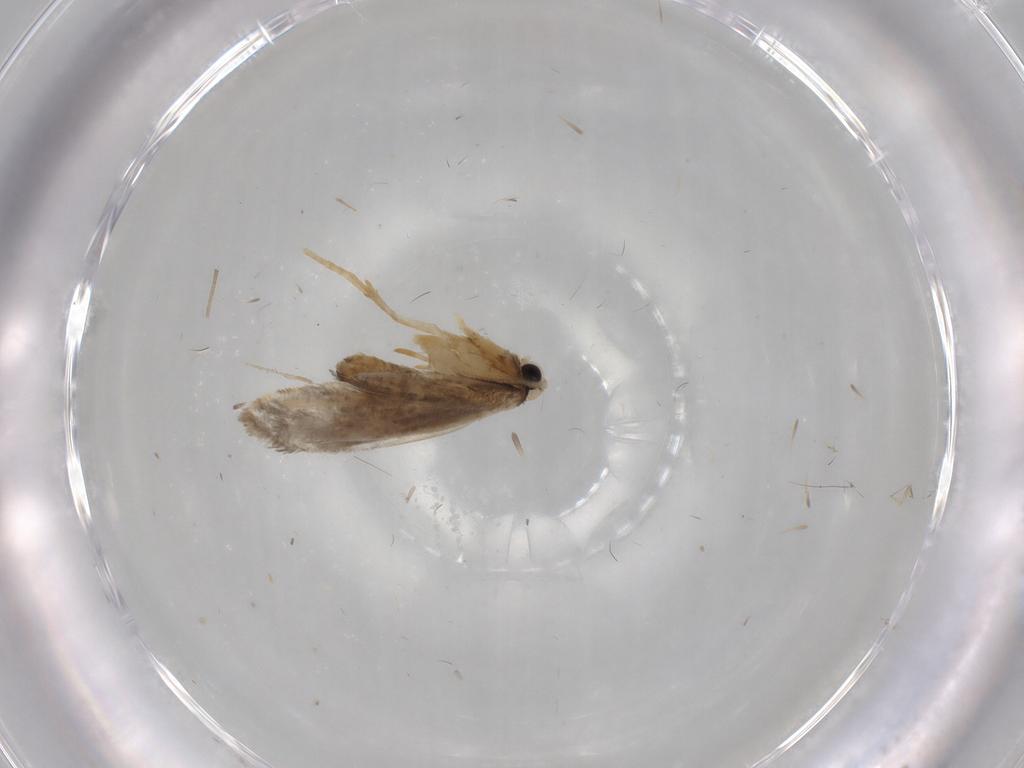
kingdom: Animalia
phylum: Arthropoda
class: Insecta
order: Lepidoptera
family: Psychidae
